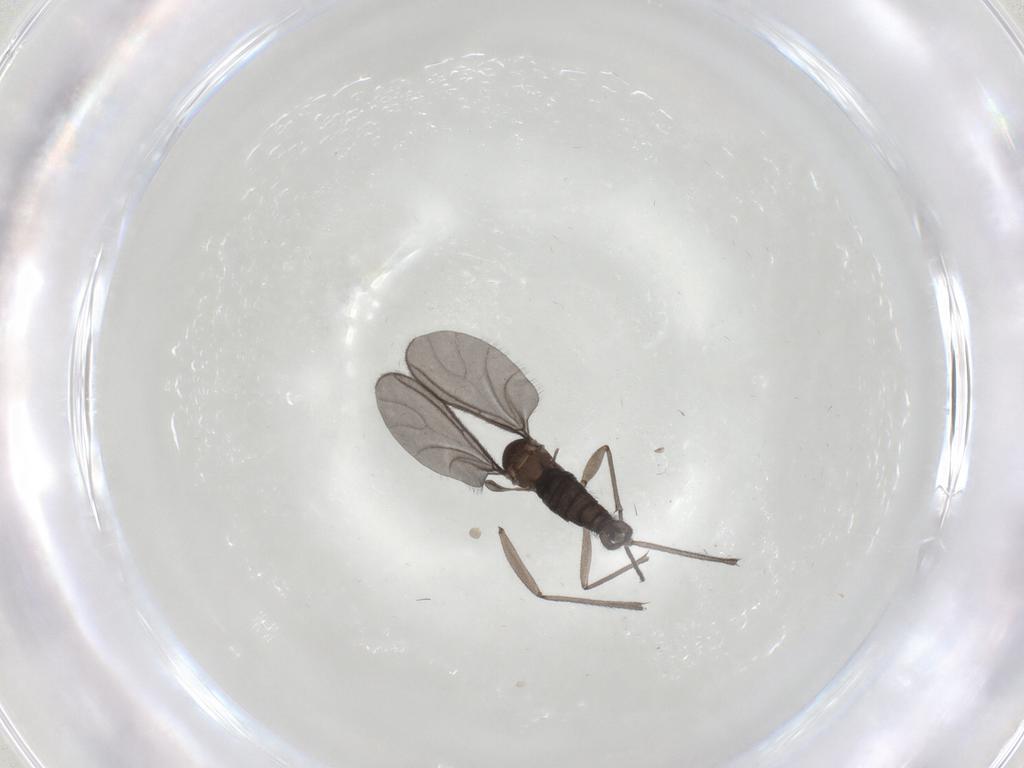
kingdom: Animalia
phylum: Arthropoda
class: Insecta
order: Diptera
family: Sciaridae
